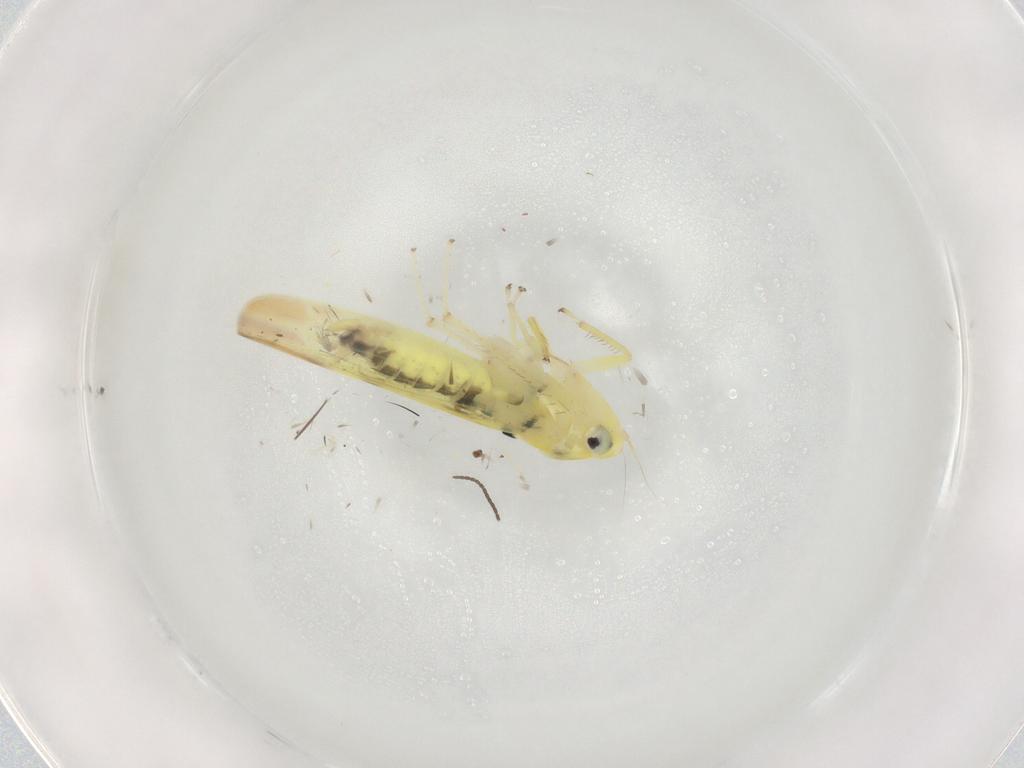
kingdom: Animalia
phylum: Arthropoda
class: Insecta
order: Hemiptera
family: Cicadellidae
